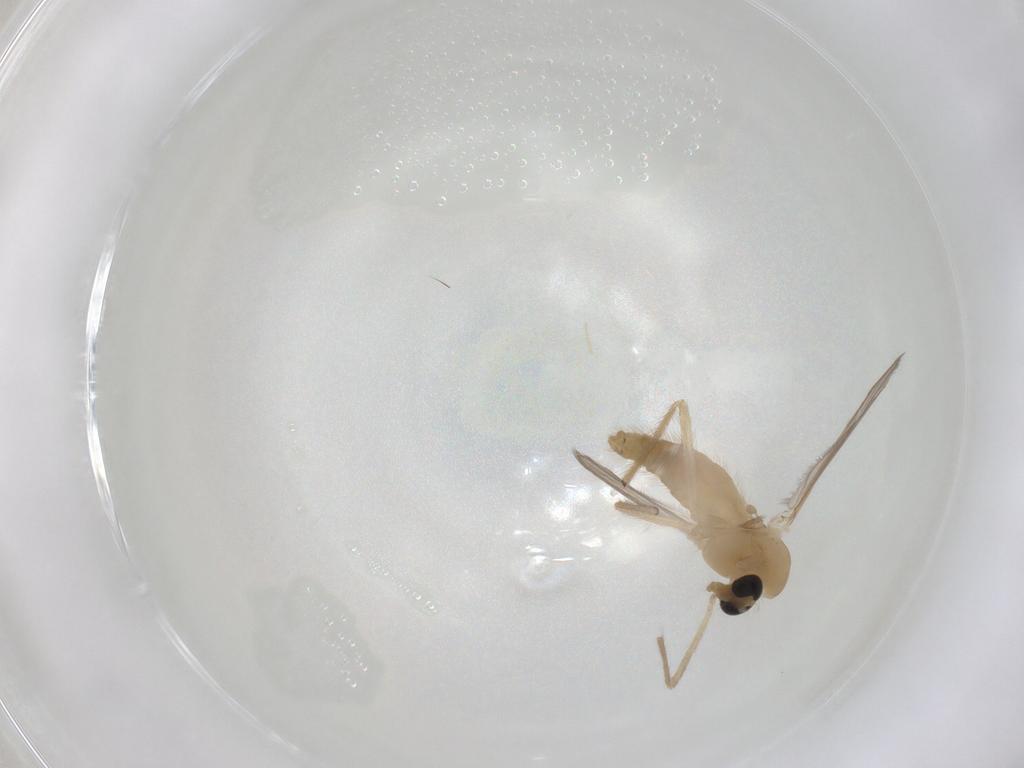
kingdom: Animalia
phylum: Arthropoda
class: Insecta
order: Diptera
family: Chironomidae
